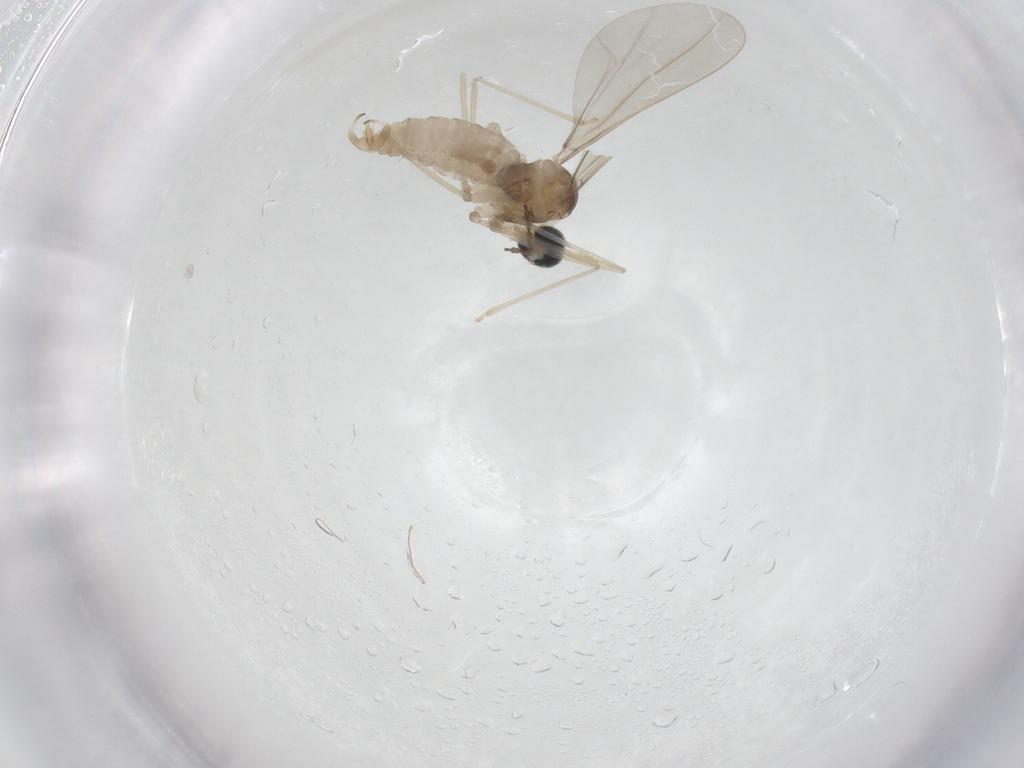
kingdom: Animalia
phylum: Arthropoda
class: Insecta
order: Diptera
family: Cecidomyiidae
